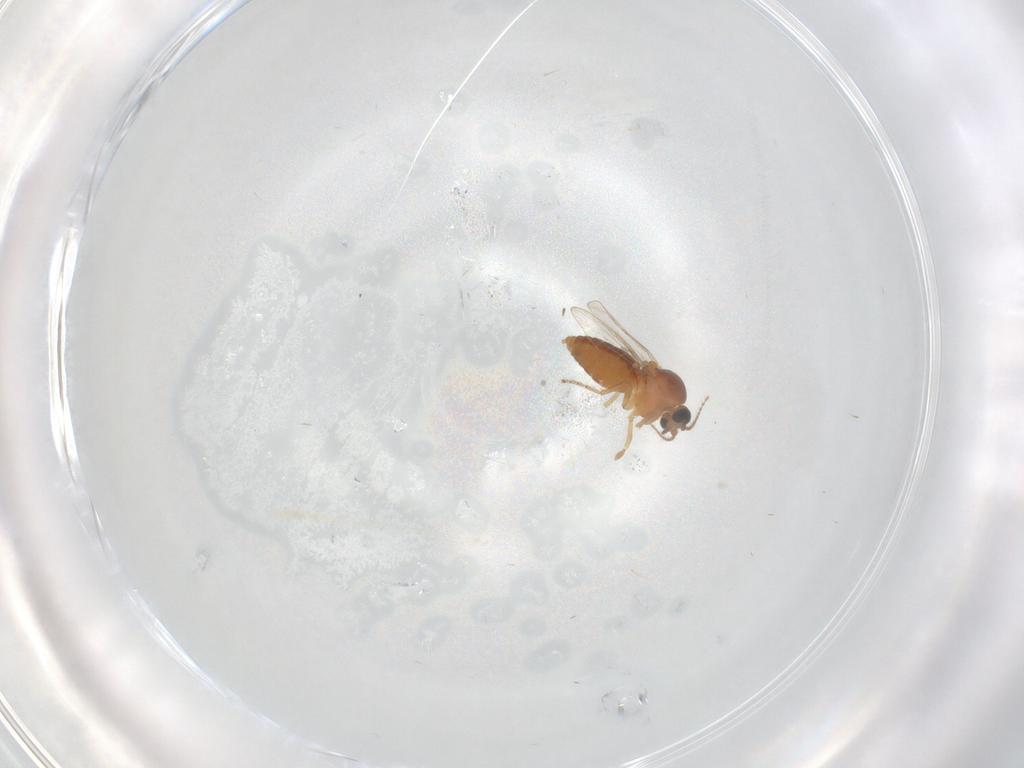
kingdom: Animalia
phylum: Arthropoda
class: Insecta
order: Diptera
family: Ceratopogonidae
